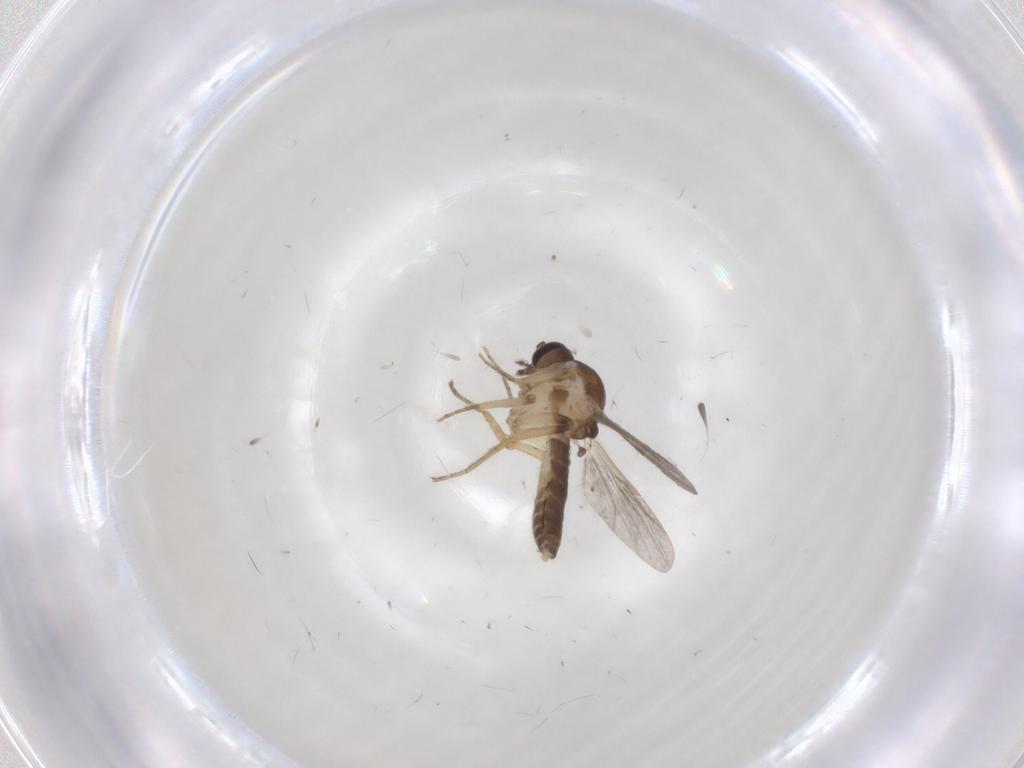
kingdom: Animalia
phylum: Arthropoda
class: Insecta
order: Diptera
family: Ceratopogonidae
